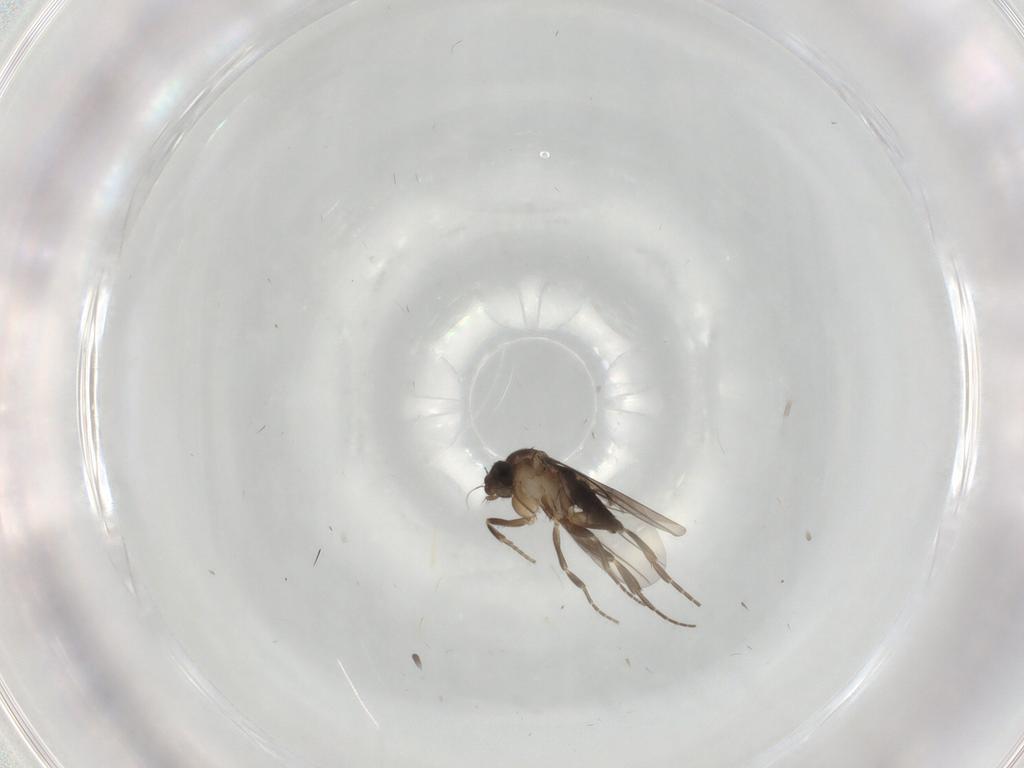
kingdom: Animalia
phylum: Arthropoda
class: Insecta
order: Diptera
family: Phoridae
